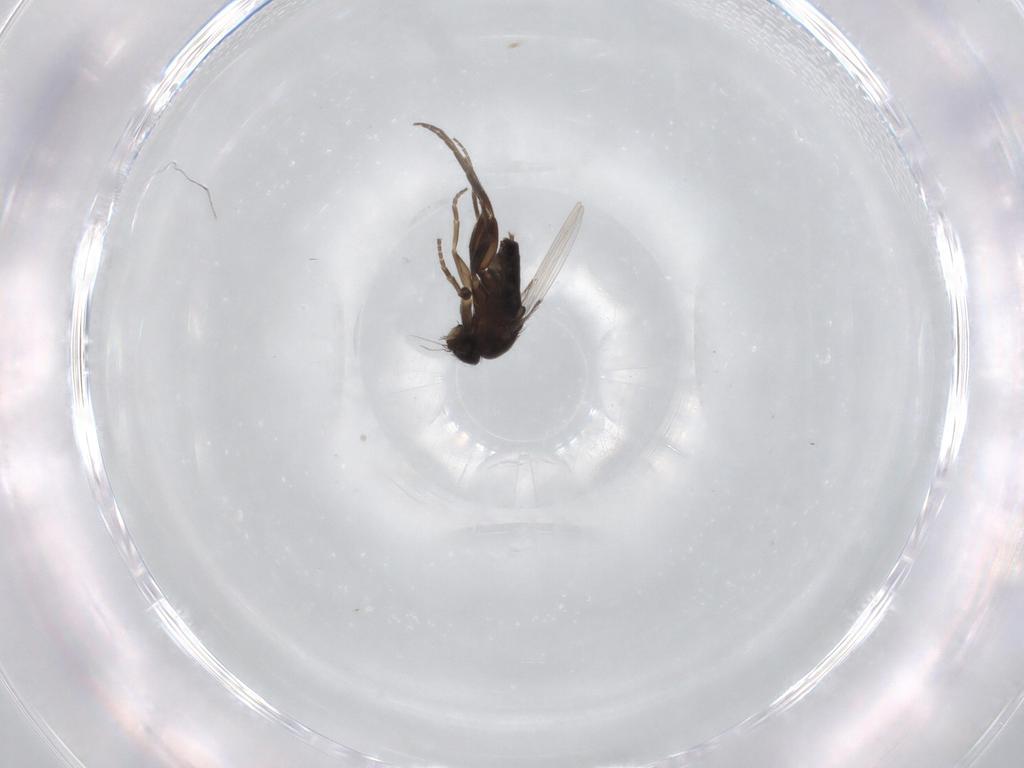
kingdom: Animalia
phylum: Arthropoda
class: Insecta
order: Diptera
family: Phoridae
